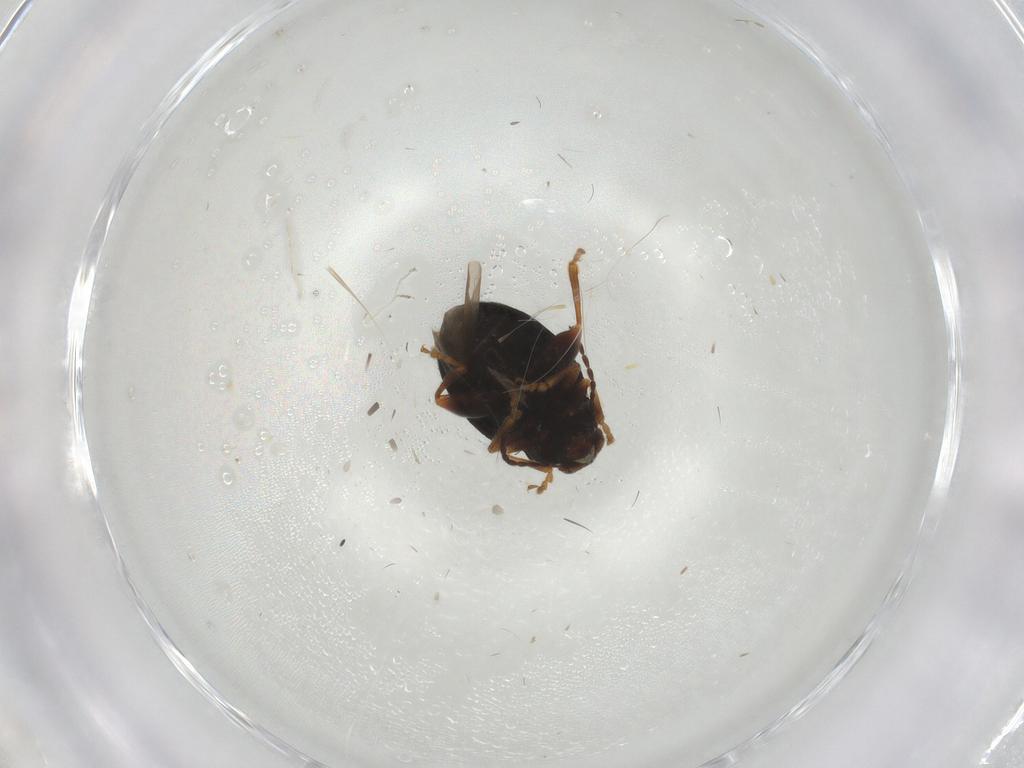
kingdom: Animalia
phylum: Arthropoda
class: Insecta
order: Coleoptera
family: Chrysomelidae
